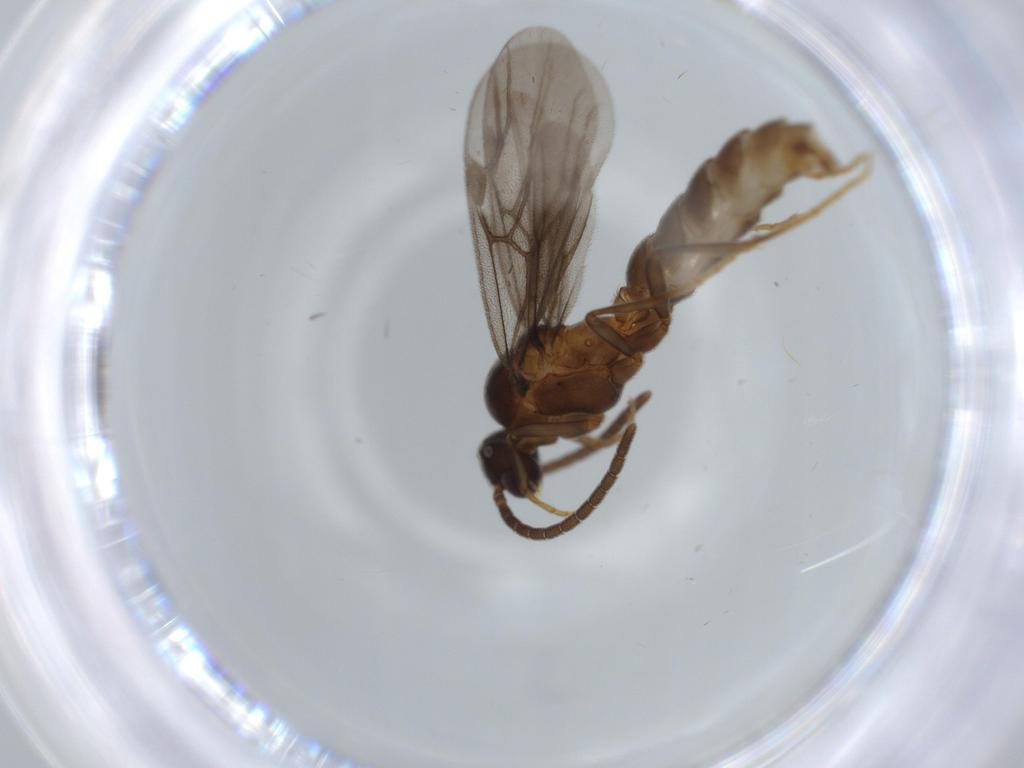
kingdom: Animalia
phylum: Arthropoda
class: Insecta
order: Hymenoptera
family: Formicidae
